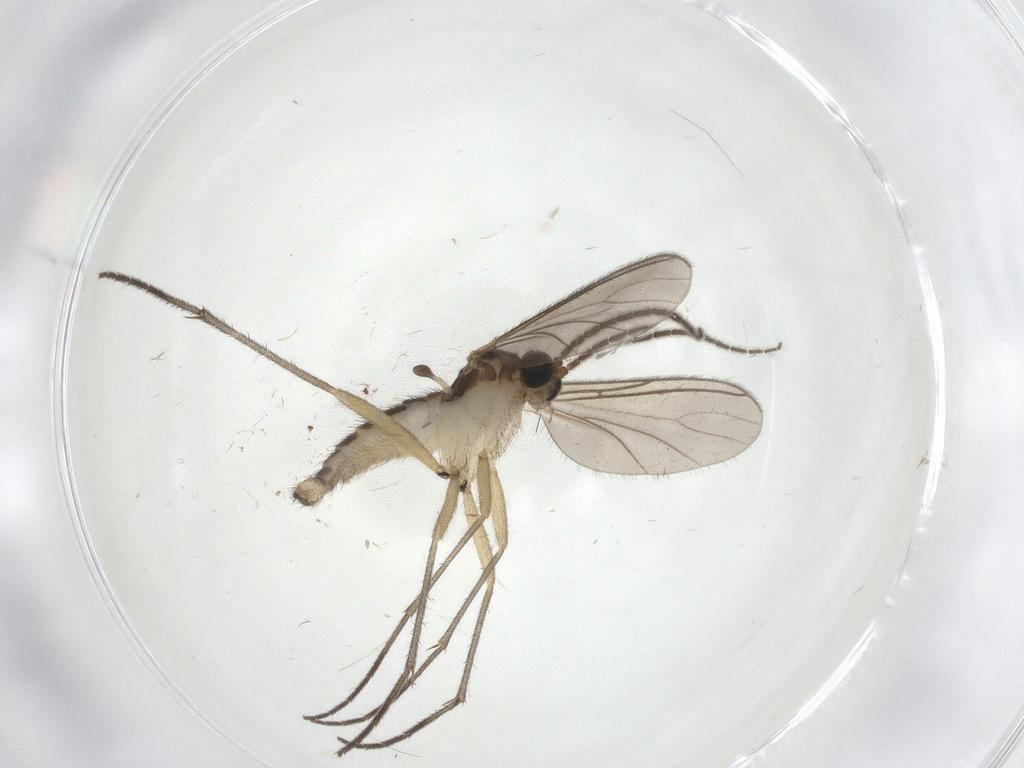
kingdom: Animalia
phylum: Arthropoda
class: Insecta
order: Diptera
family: Sciaridae
